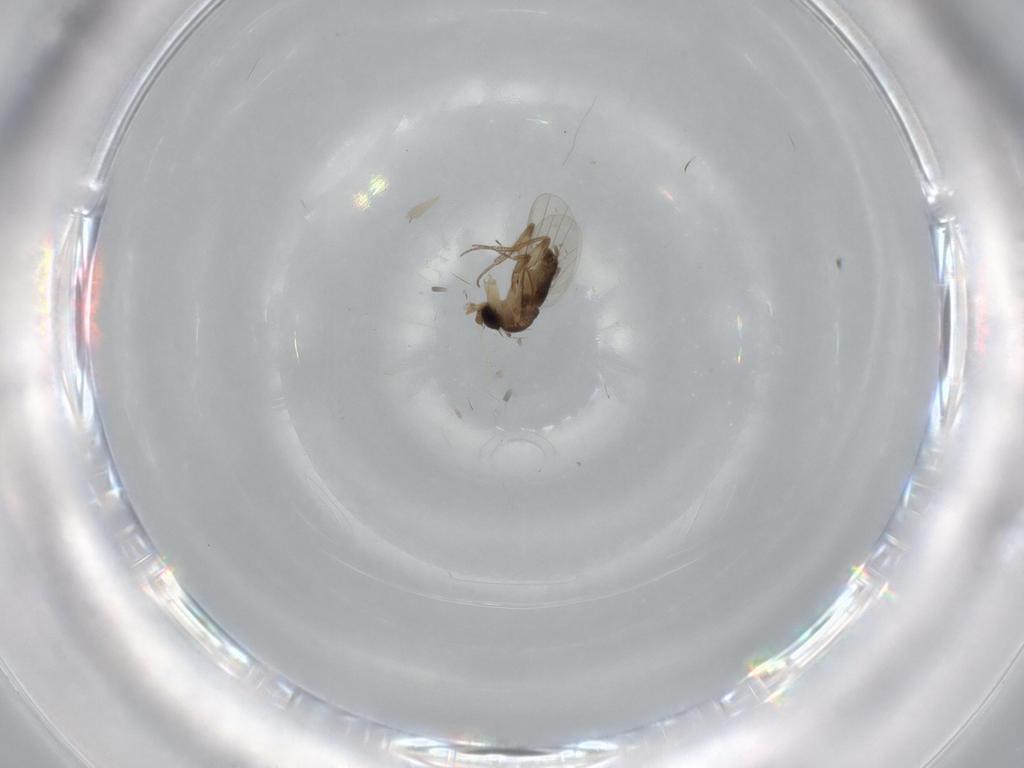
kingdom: Animalia
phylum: Arthropoda
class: Insecta
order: Diptera
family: Phoridae
